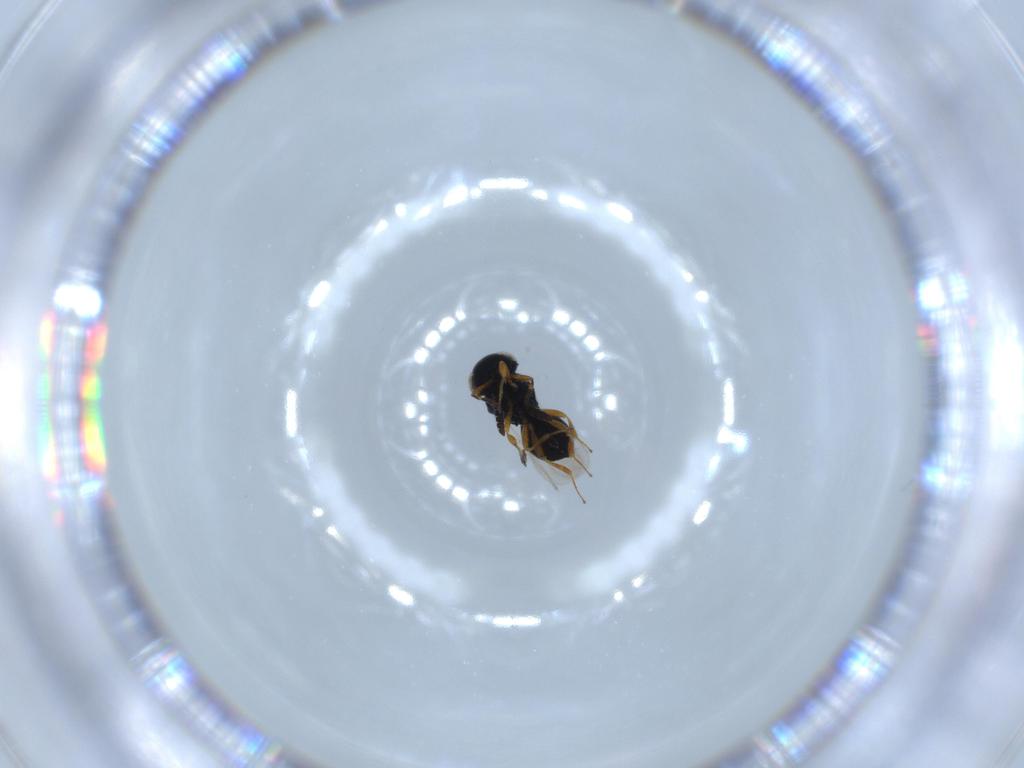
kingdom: Animalia
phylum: Arthropoda
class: Insecta
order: Hymenoptera
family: Scelionidae
